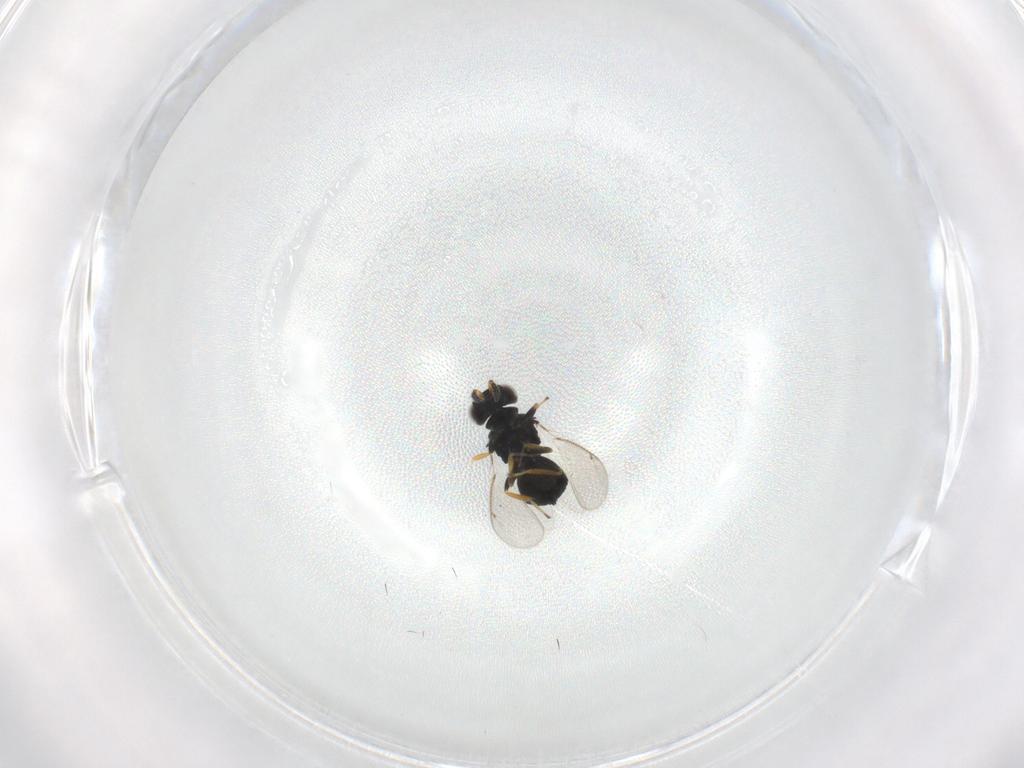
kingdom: Animalia
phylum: Arthropoda
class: Insecta
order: Hymenoptera
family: Eulophidae
